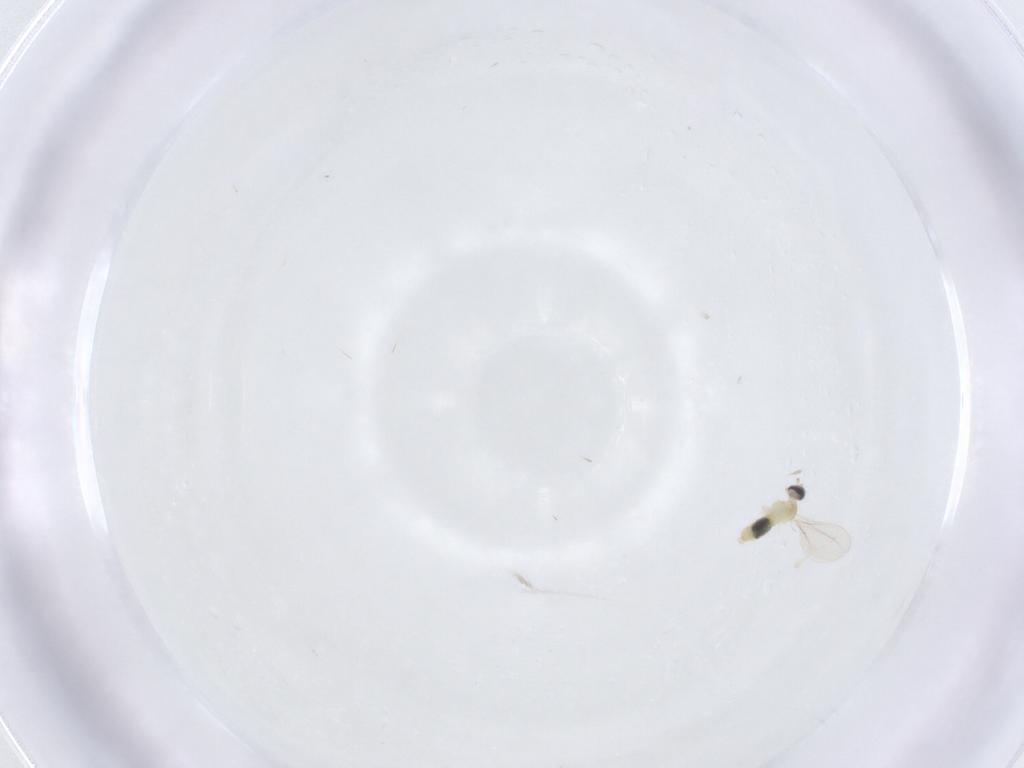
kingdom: Animalia
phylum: Arthropoda
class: Insecta
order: Diptera
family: Cecidomyiidae
